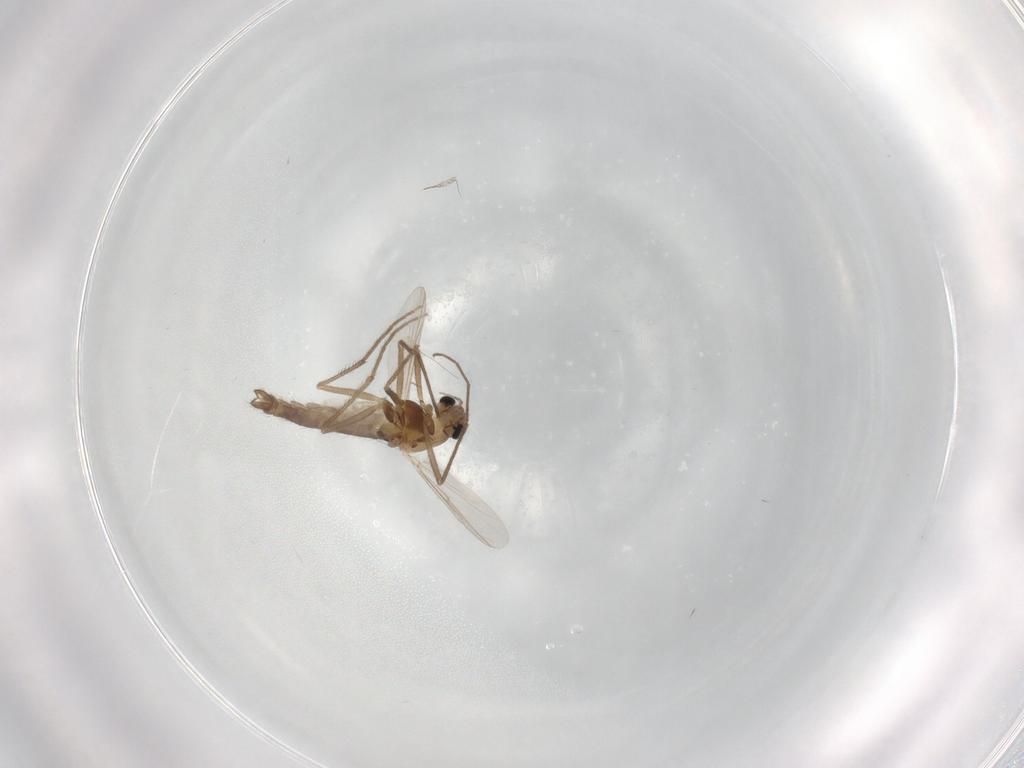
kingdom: Animalia
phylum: Arthropoda
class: Insecta
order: Diptera
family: Chironomidae
